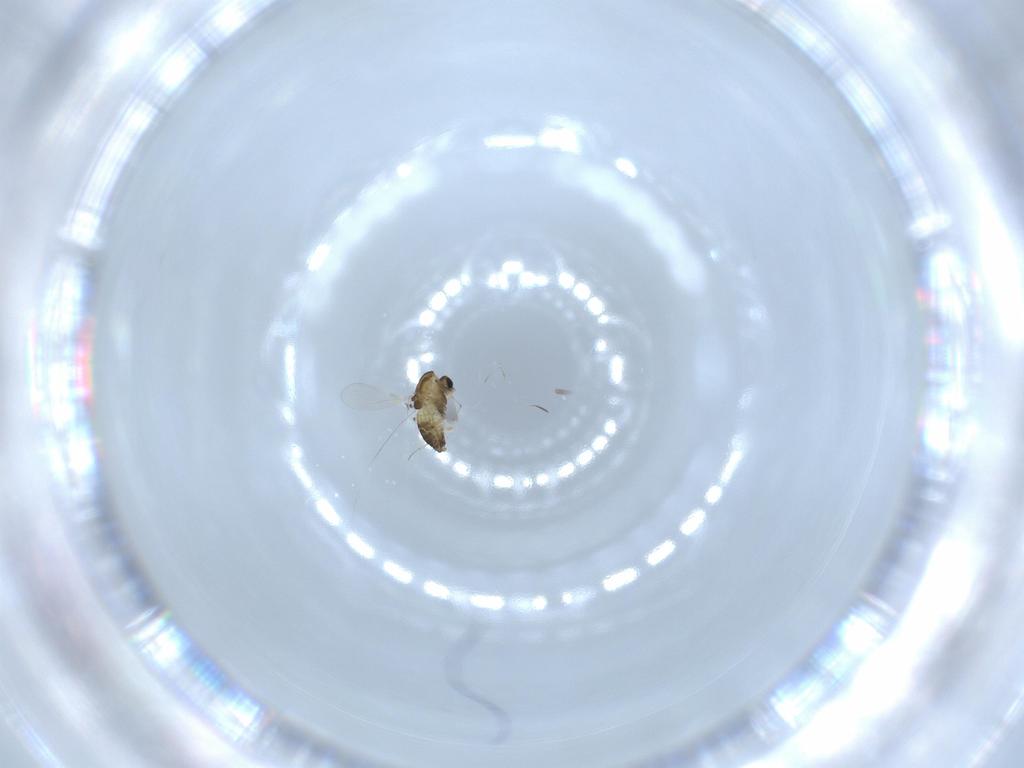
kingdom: Animalia
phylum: Arthropoda
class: Insecta
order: Diptera
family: Chironomidae
